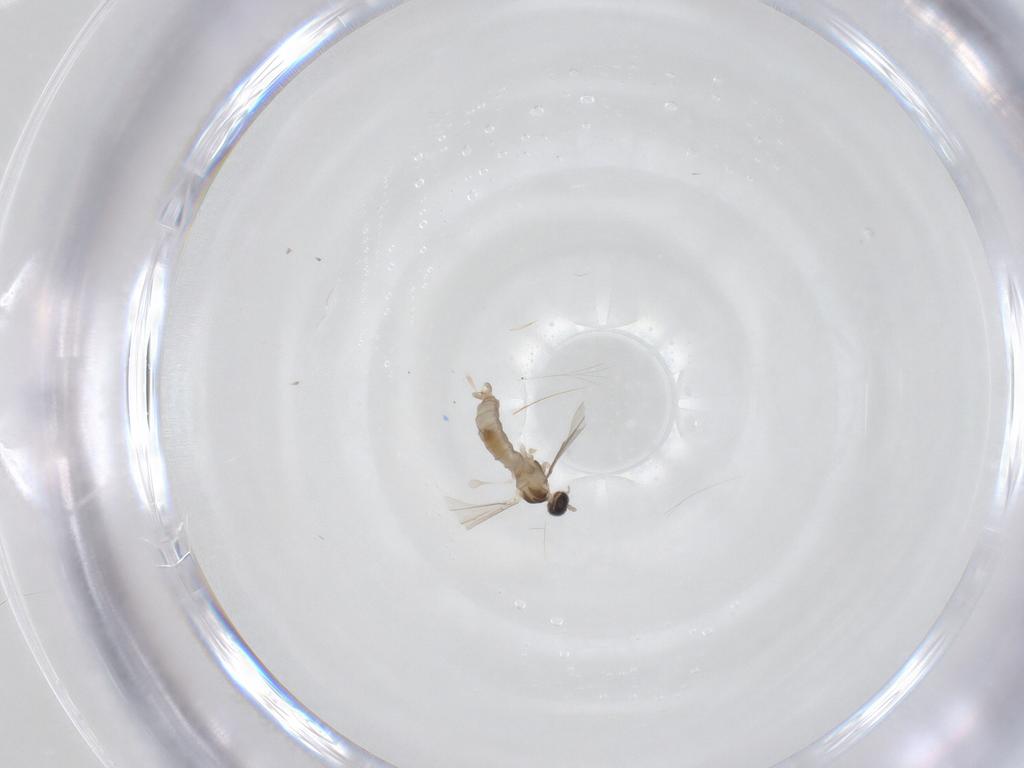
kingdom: Animalia
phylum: Arthropoda
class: Insecta
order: Diptera
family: Cecidomyiidae
